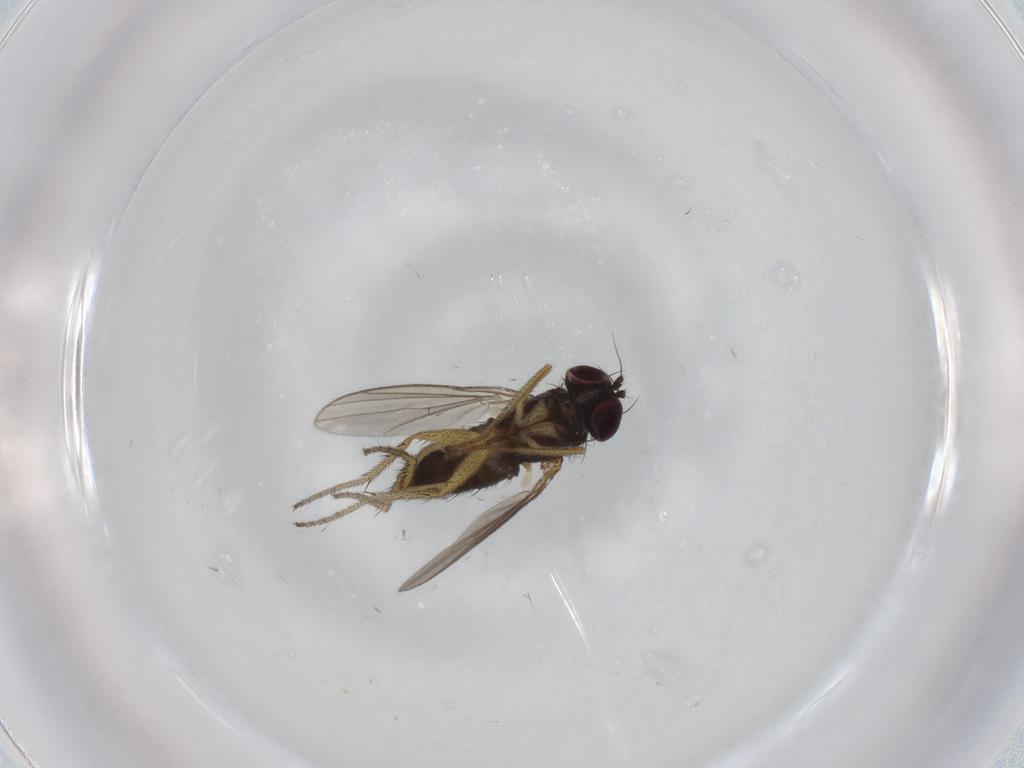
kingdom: Animalia
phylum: Arthropoda
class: Insecta
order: Diptera
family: Dolichopodidae
